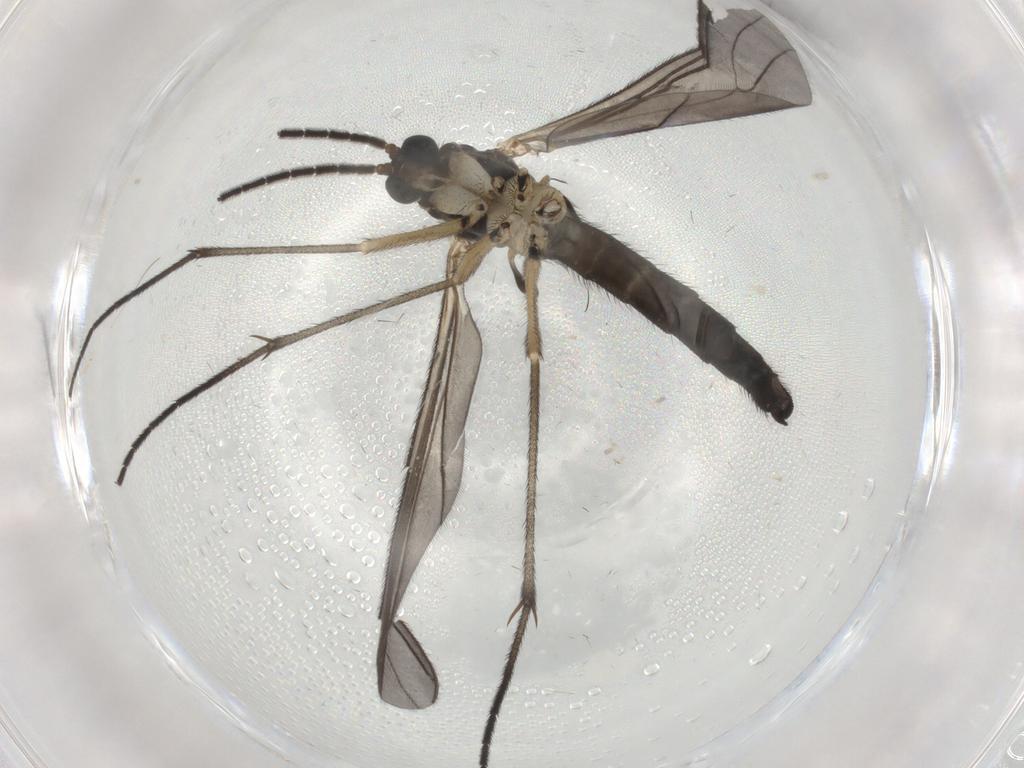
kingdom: Animalia
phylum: Arthropoda
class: Insecta
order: Diptera
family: Sciaridae
